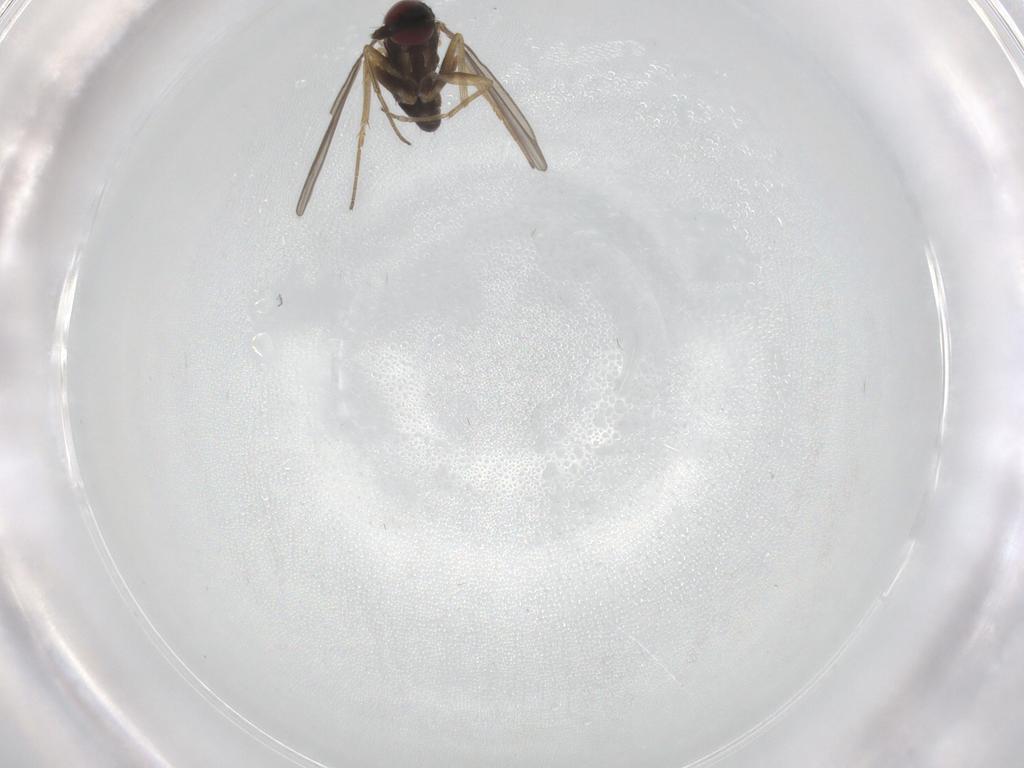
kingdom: Animalia
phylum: Arthropoda
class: Insecta
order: Diptera
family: Dolichopodidae
